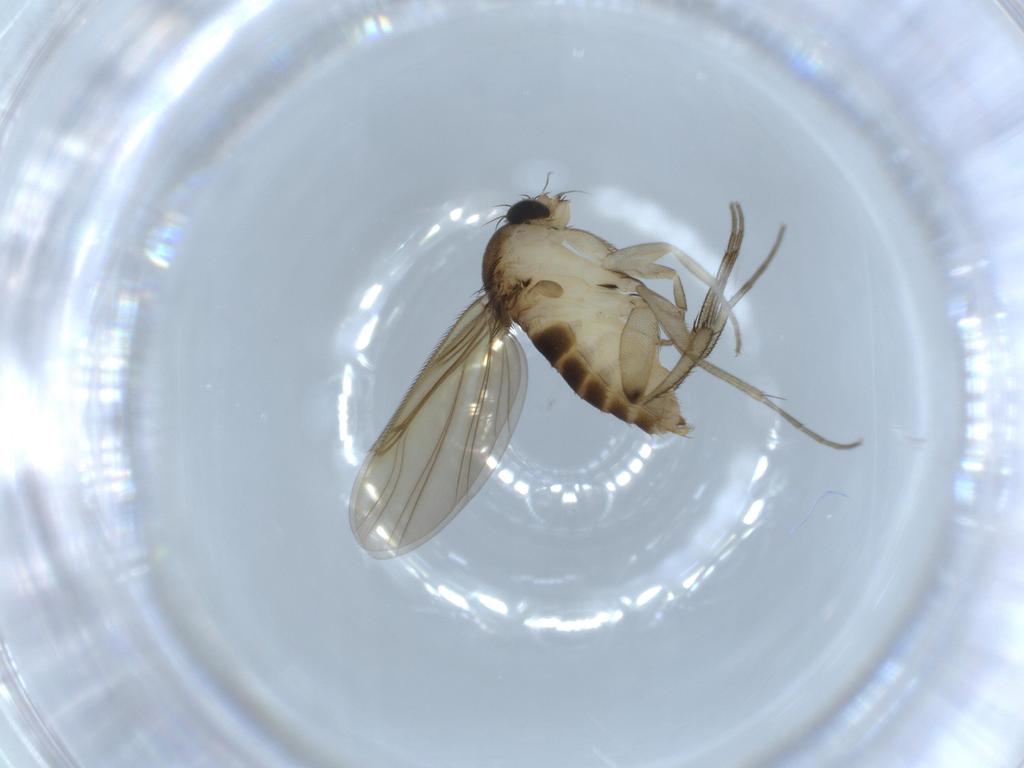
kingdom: Animalia
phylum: Arthropoda
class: Insecta
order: Diptera
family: Phoridae
